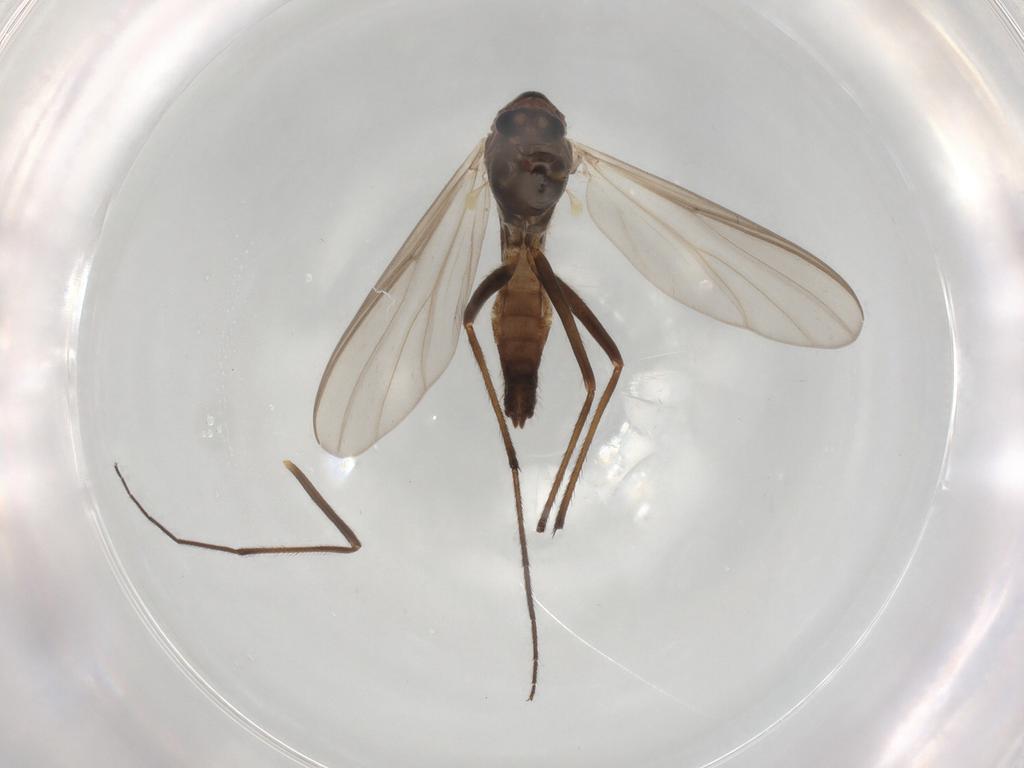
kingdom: Animalia
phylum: Arthropoda
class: Insecta
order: Diptera
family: Chironomidae
